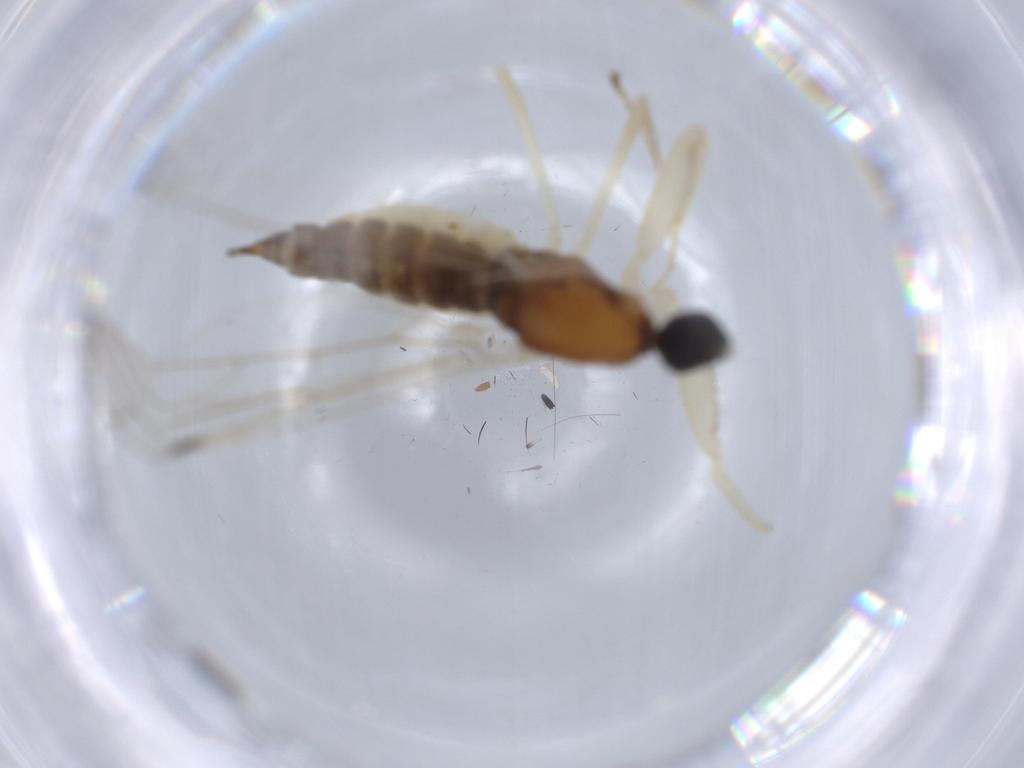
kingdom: Animalia
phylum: Arthropoda
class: Insecta
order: Diptera
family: Empididae
